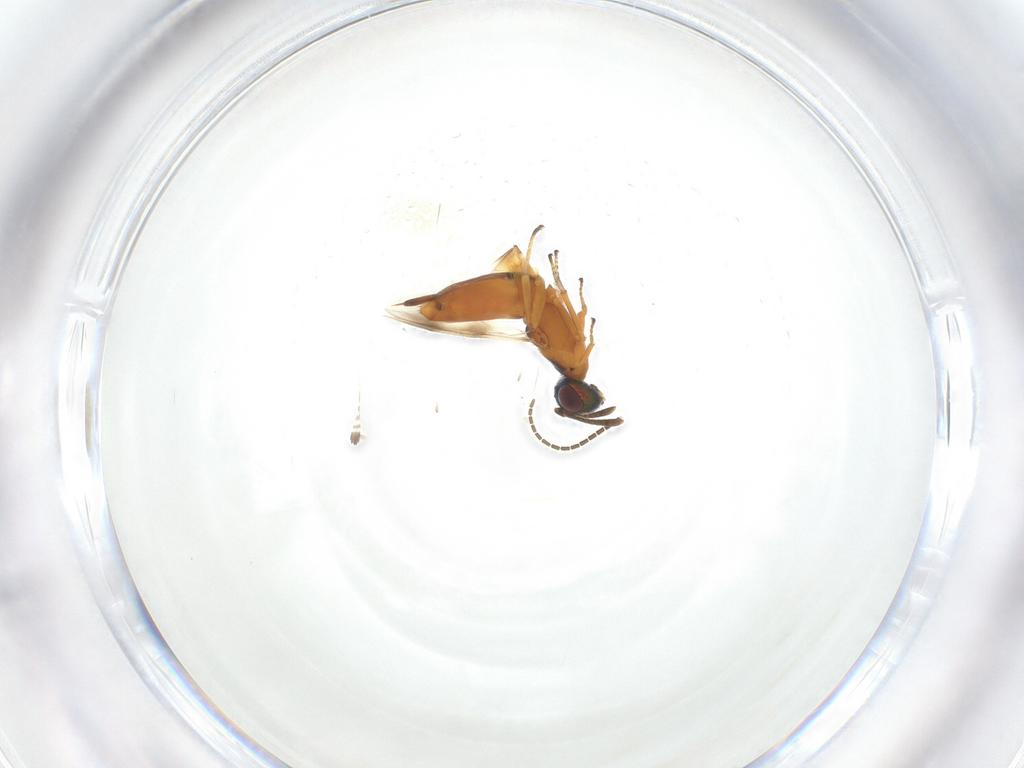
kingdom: Animalia
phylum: Arthropoda
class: Insecta
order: Hymenoptera
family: Eupelmidae
